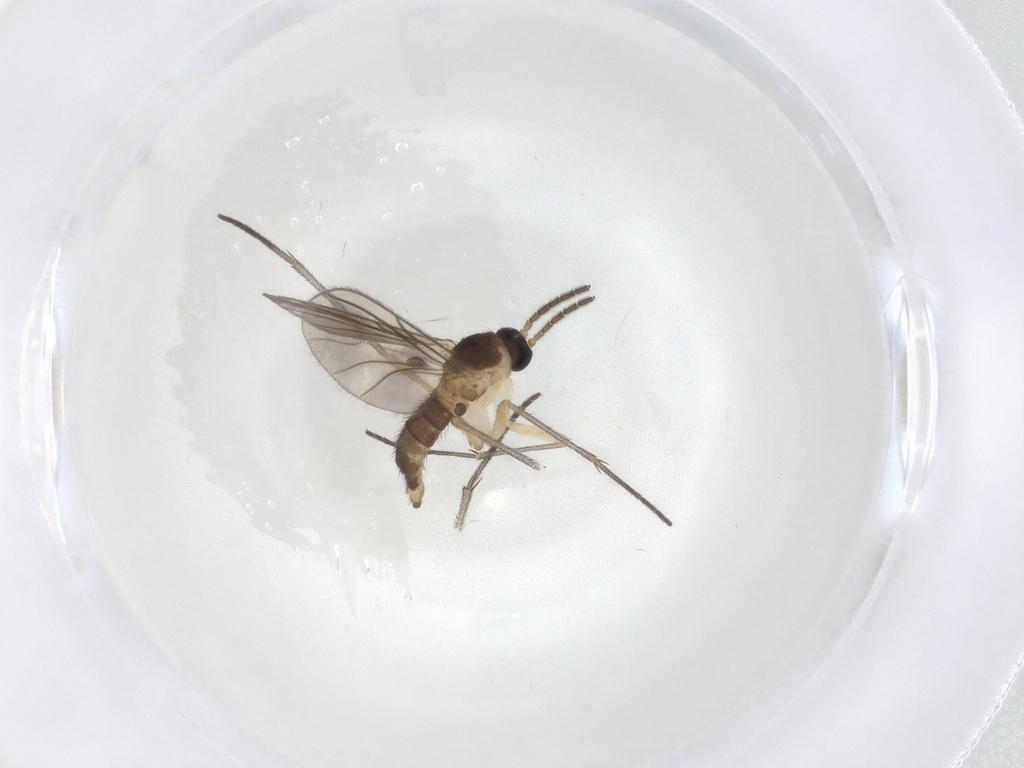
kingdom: Animalia
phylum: Arthropoda
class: Insecta
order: Diptera
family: Sciaridae
